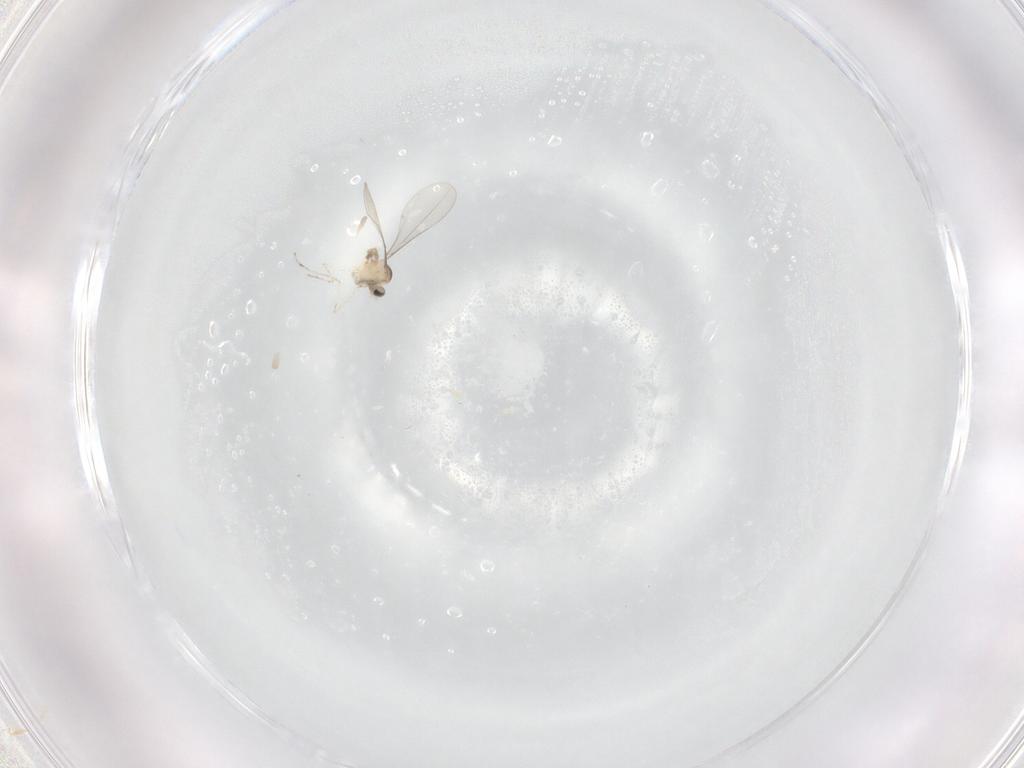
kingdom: Animalia
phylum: Arthropoda
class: Insecta
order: Diptera
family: Cecidomyiidae
